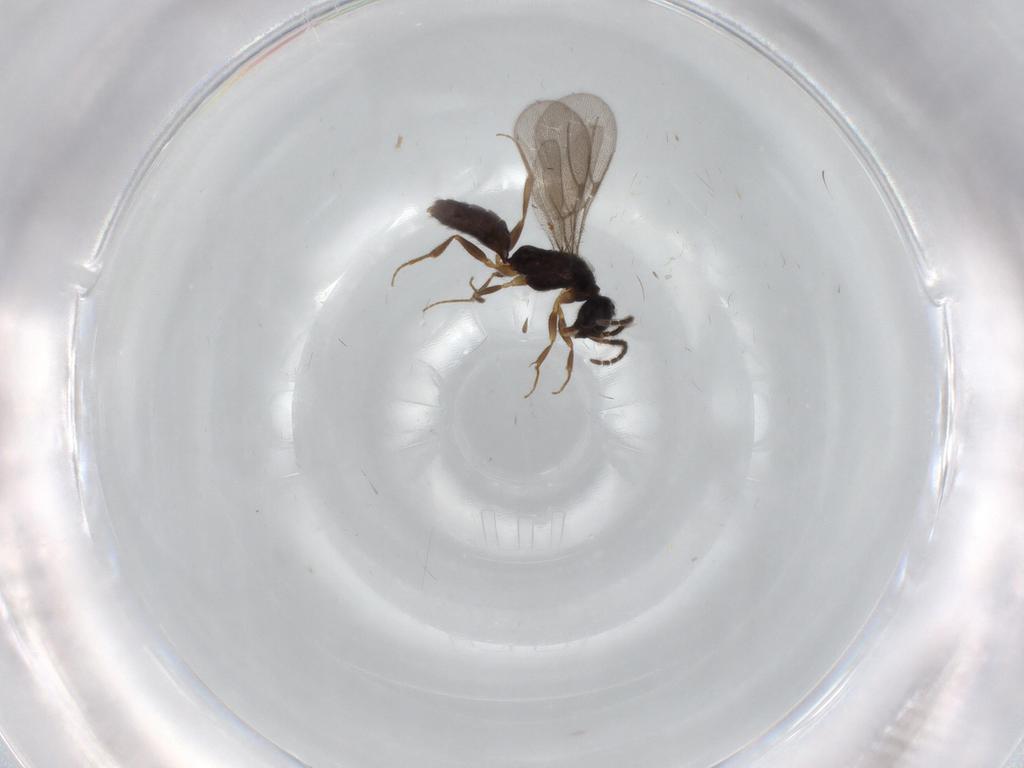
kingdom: Animalia
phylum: Arthropoda
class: Insecta
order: Hymenoptera
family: Bethylidae
